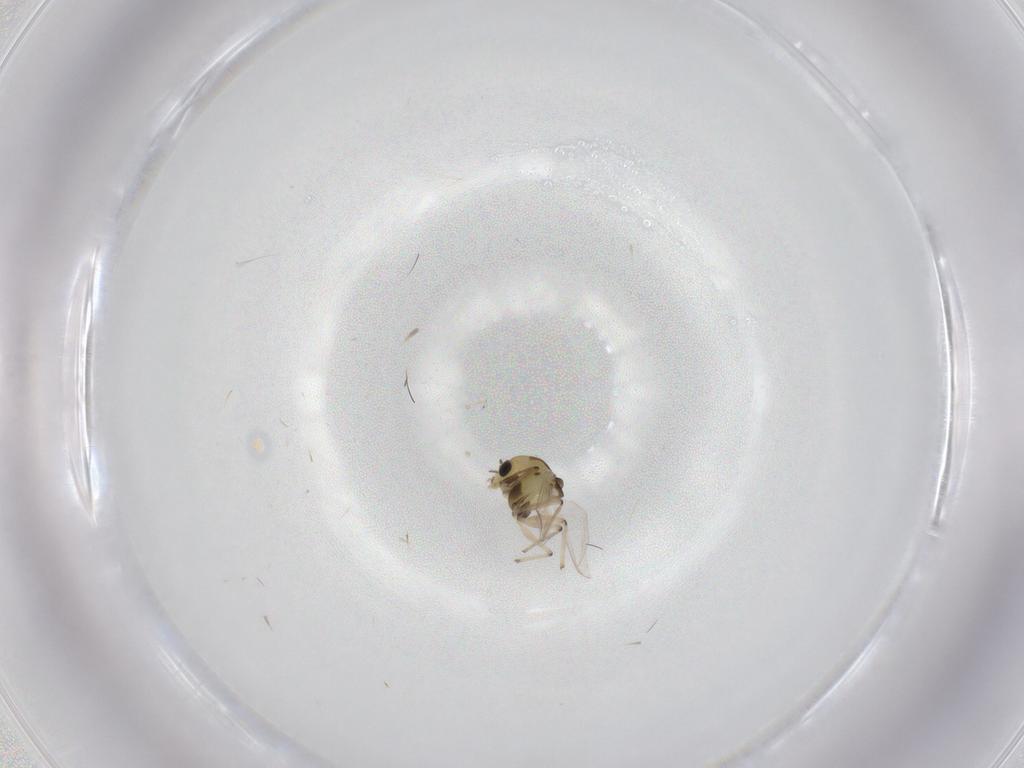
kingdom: Animalia
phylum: Arthropoda
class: Insecta
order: Diptera
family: Chironomidae
